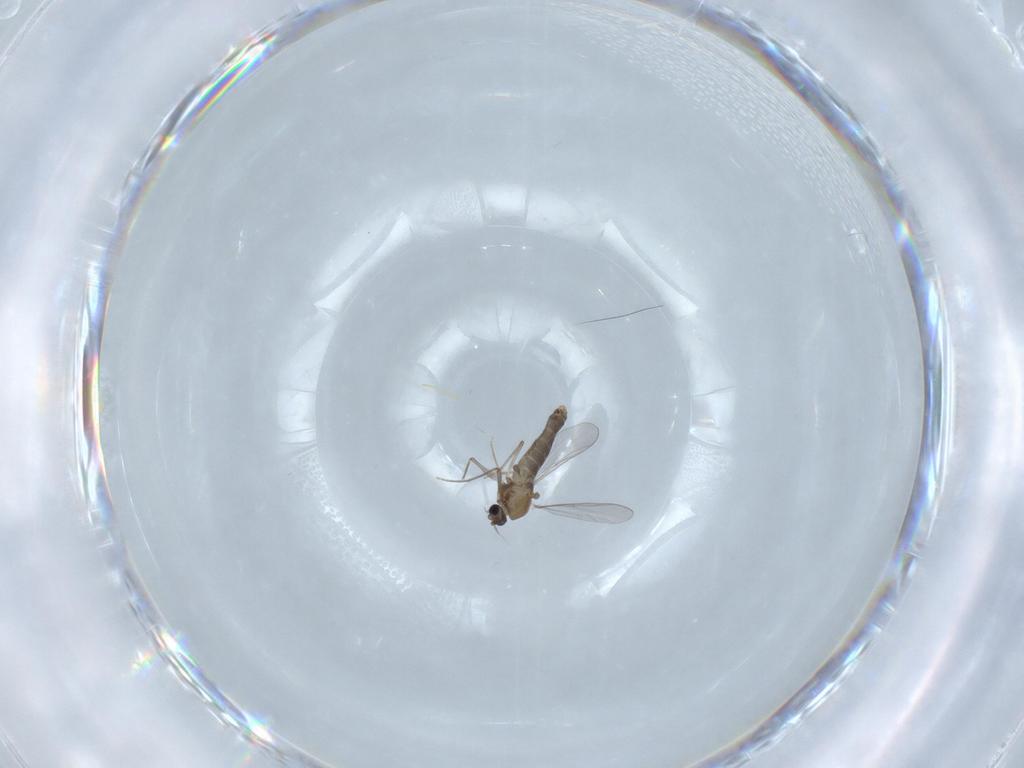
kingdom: Animalia
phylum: Arthropoda
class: Insecta
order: Diptera
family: Chironomidae
